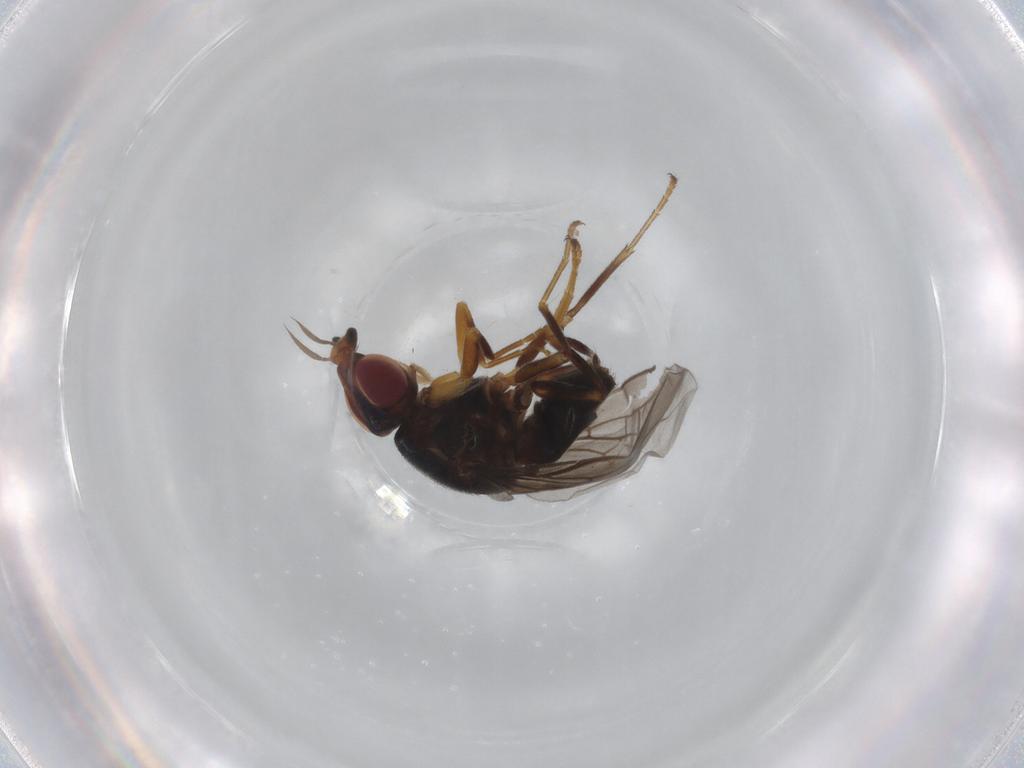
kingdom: Animalia
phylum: Arthropoda
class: Insecta
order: Diptera
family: Chloropidae
